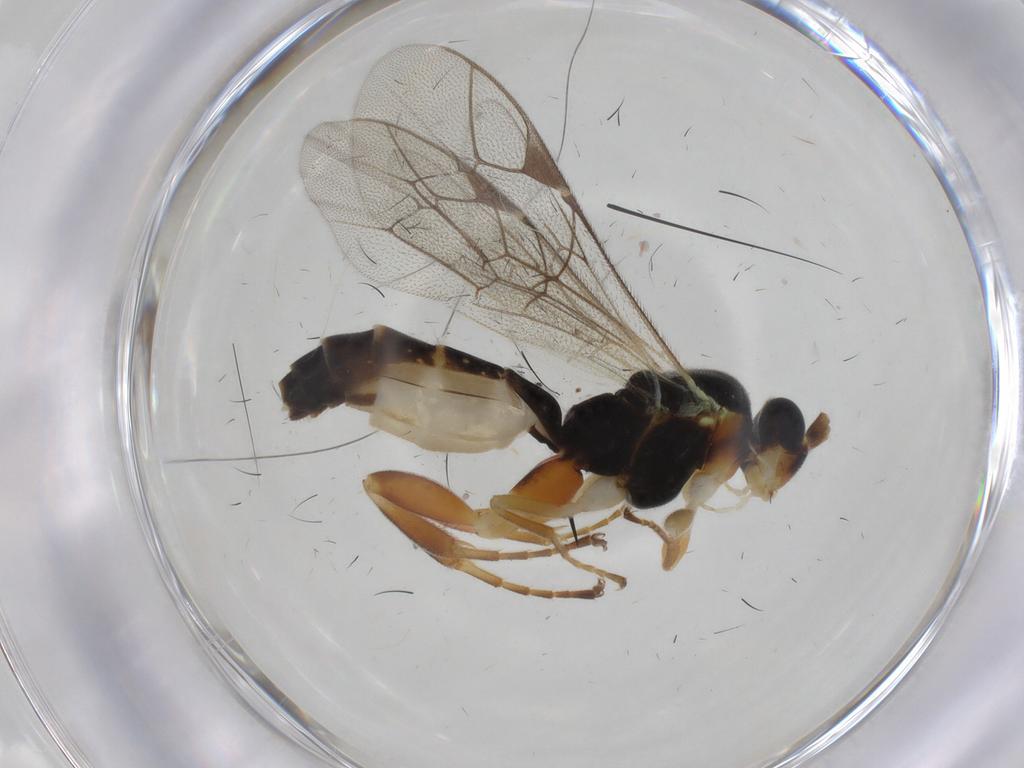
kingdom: Animalia
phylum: Arthropoda
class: Insecta
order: Hymenoptera
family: Ichneumonidae
